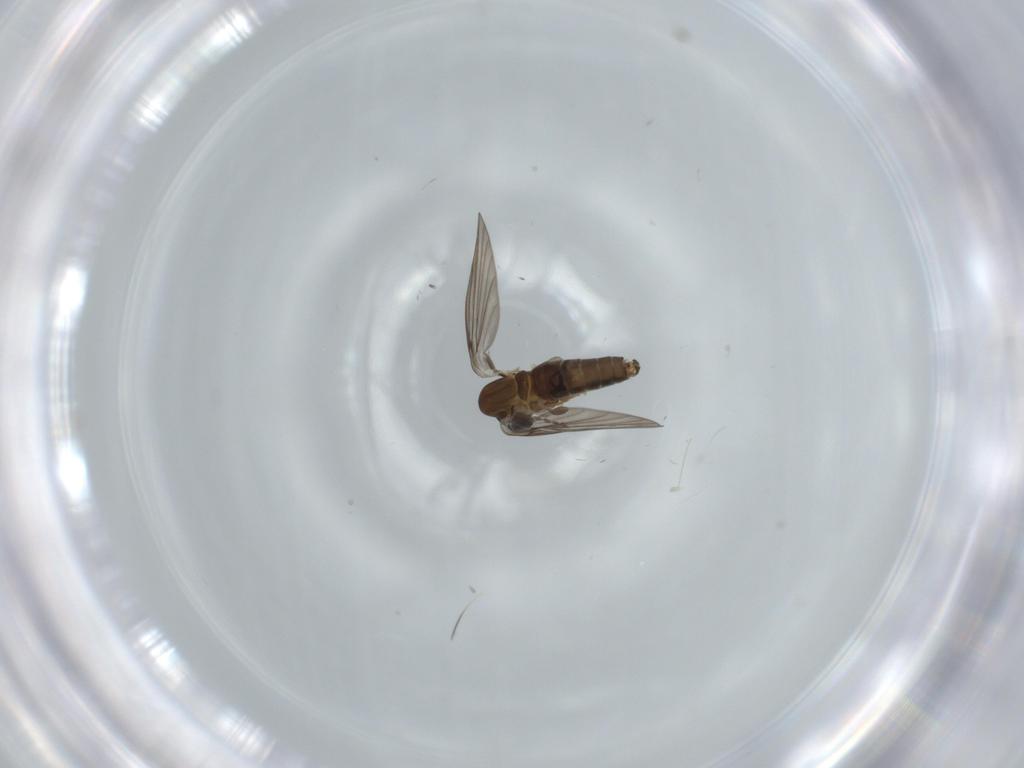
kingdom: Animalia
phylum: Arthropoda
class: Insecta
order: Diptera
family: Psychodidae
